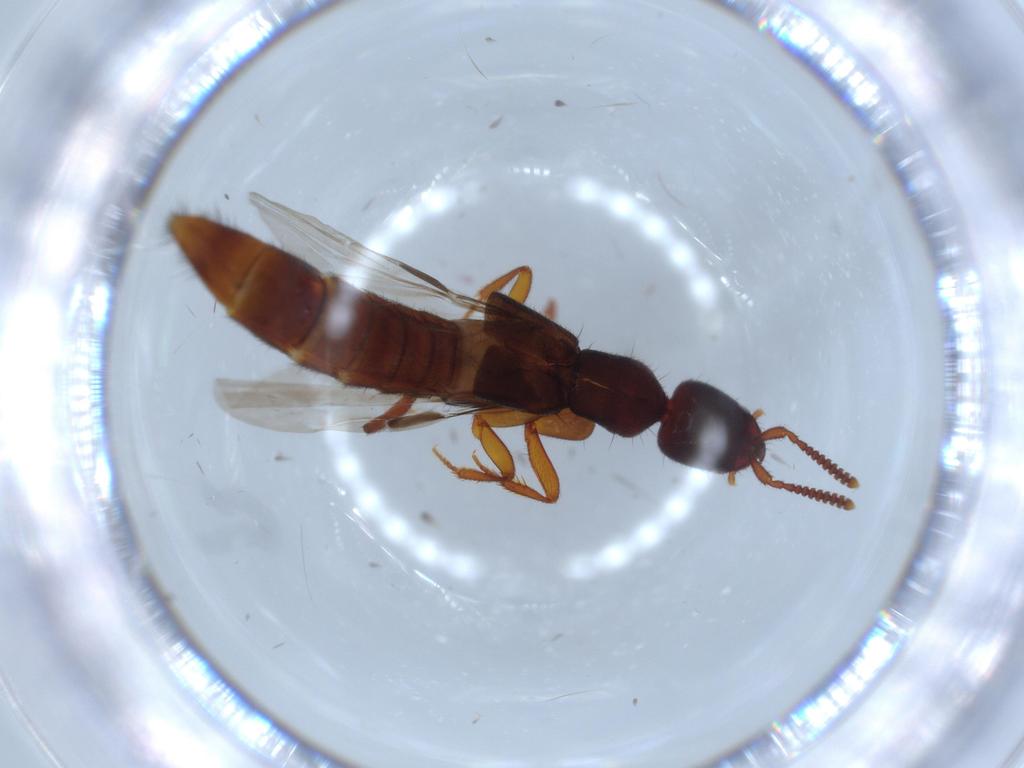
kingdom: Animalia
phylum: Arthropoda
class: Insecta
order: Coleoptera
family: Staphylinidae
